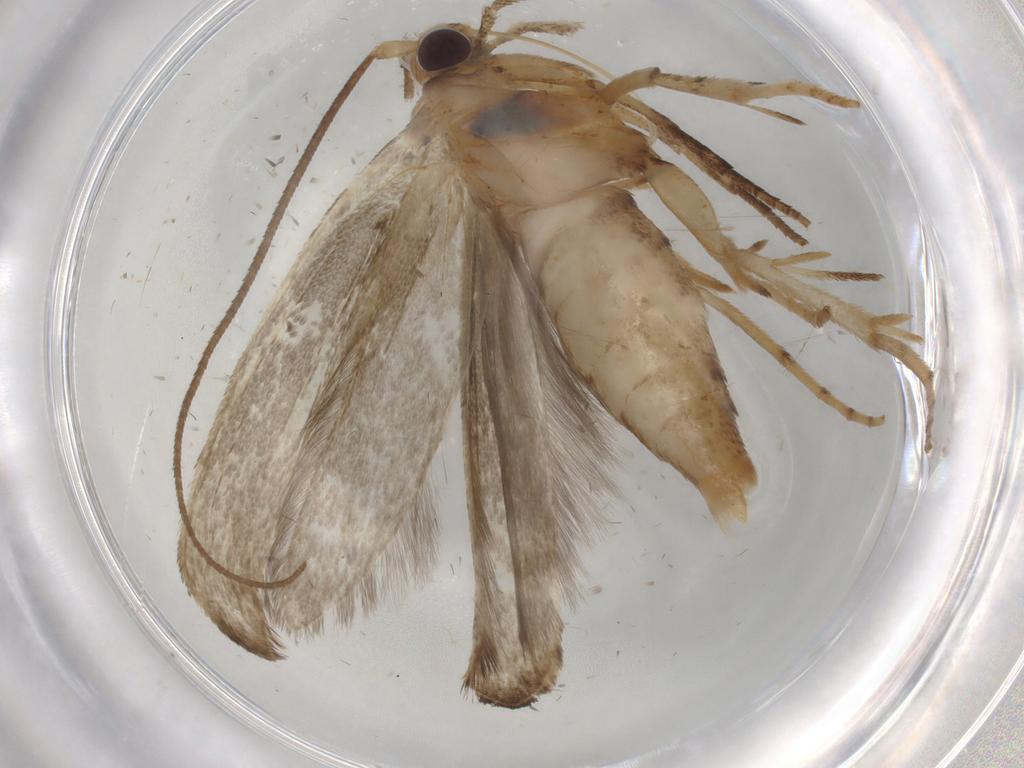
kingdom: Animalia
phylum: Arthropoda
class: Insecta
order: Lepidoptera
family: Yponomeutidae
